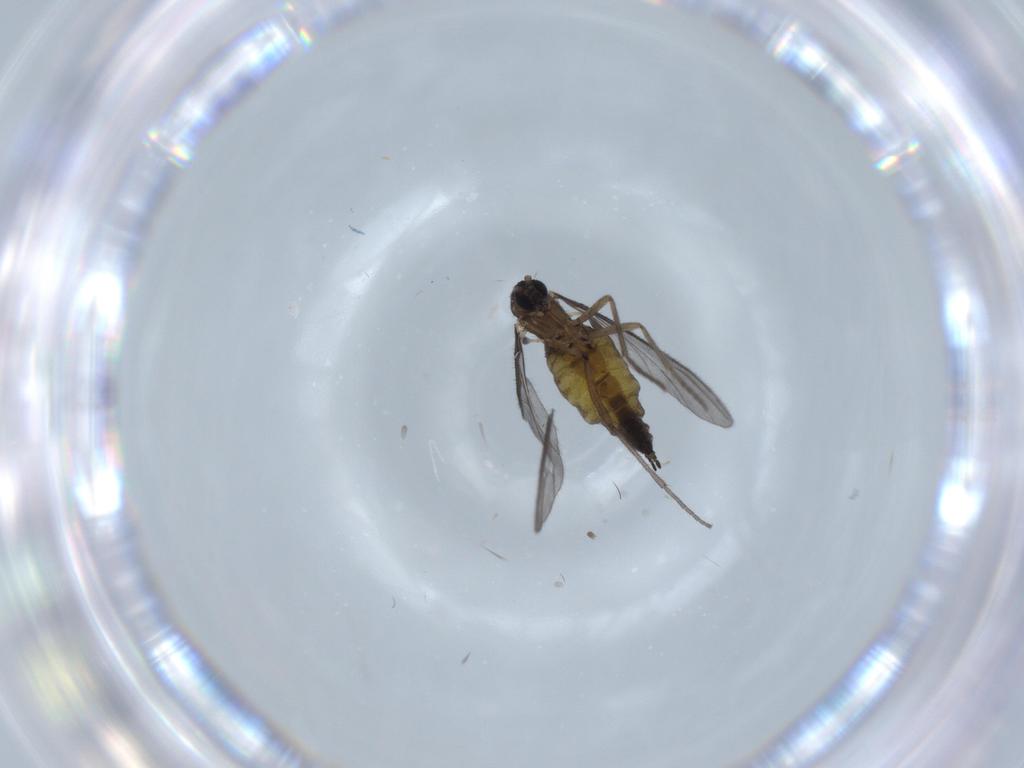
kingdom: Animalia
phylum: Arthropoda
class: Insecta
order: Diptera
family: Sciaridae
